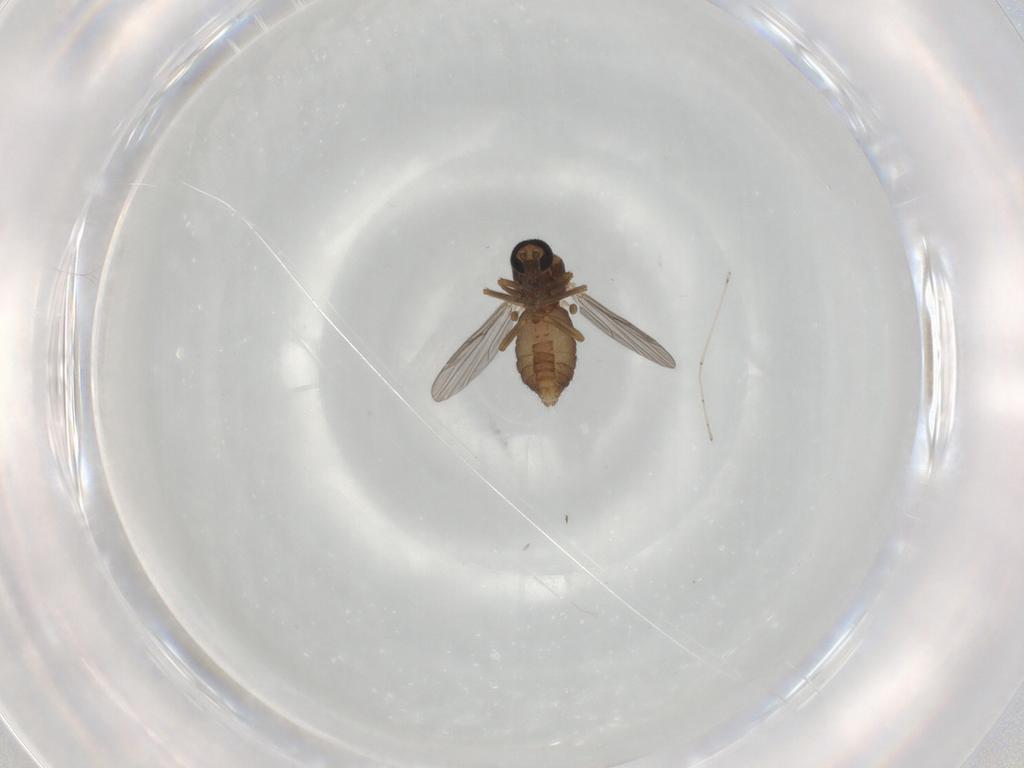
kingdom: Animalia
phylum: Arthropoda
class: Insecta
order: Diptera
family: Ceratopogonidae
